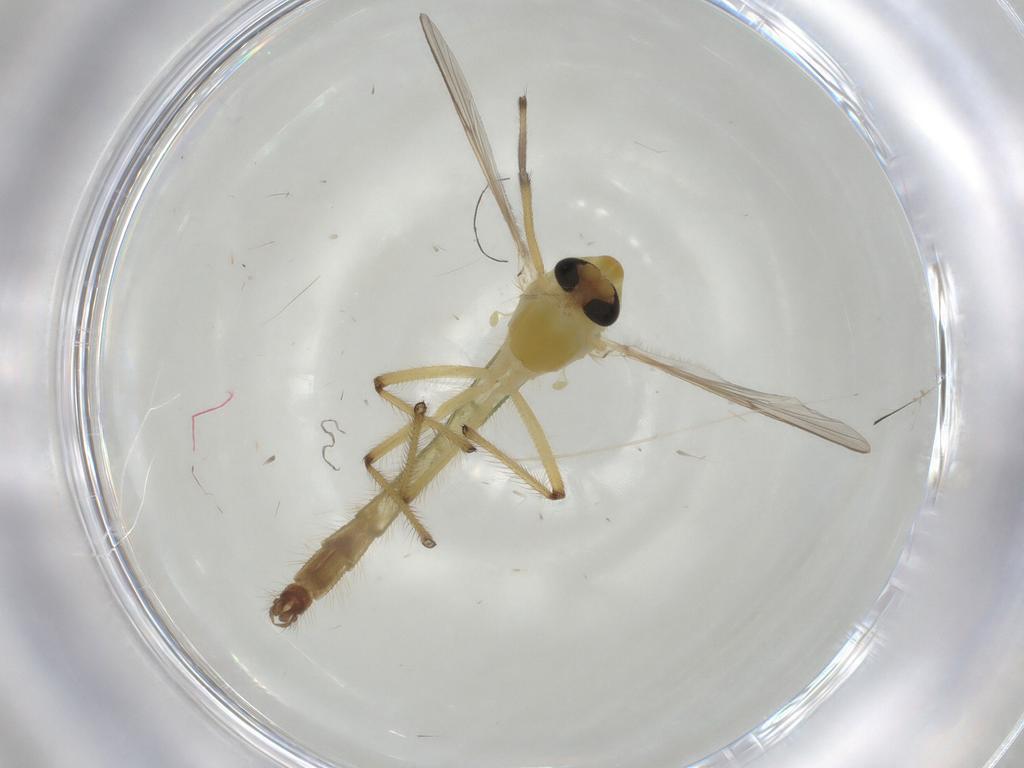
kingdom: Animalia
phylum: Arthropoda
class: Insecta
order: Diptera
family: Chironomidae
